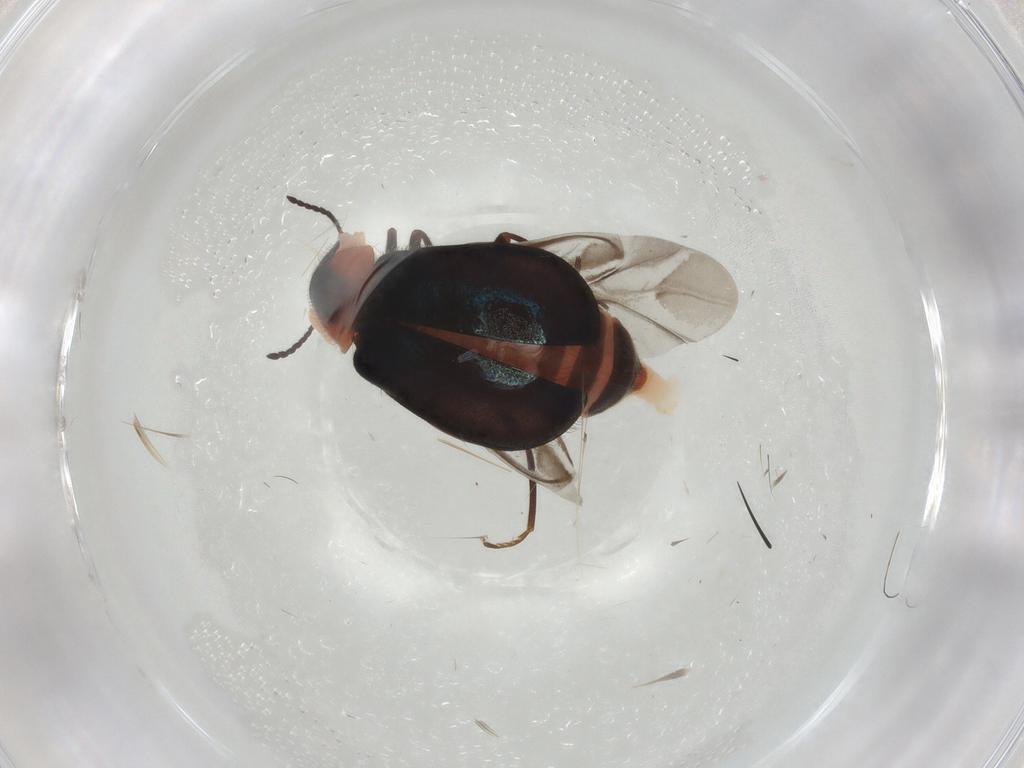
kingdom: Animalia
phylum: Arthropoda
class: Insecta
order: Coleoptera
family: Melyridae
